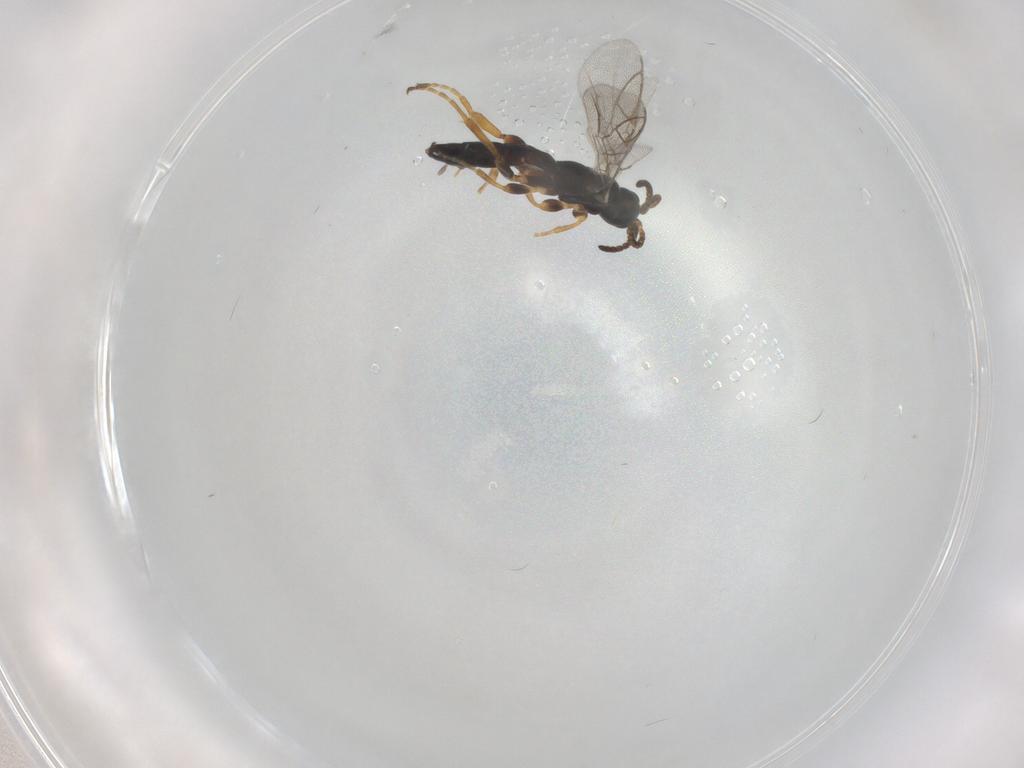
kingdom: Animalia
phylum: Arthropoda
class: Insecta
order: Hymenoptera
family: Ichneumonidae
